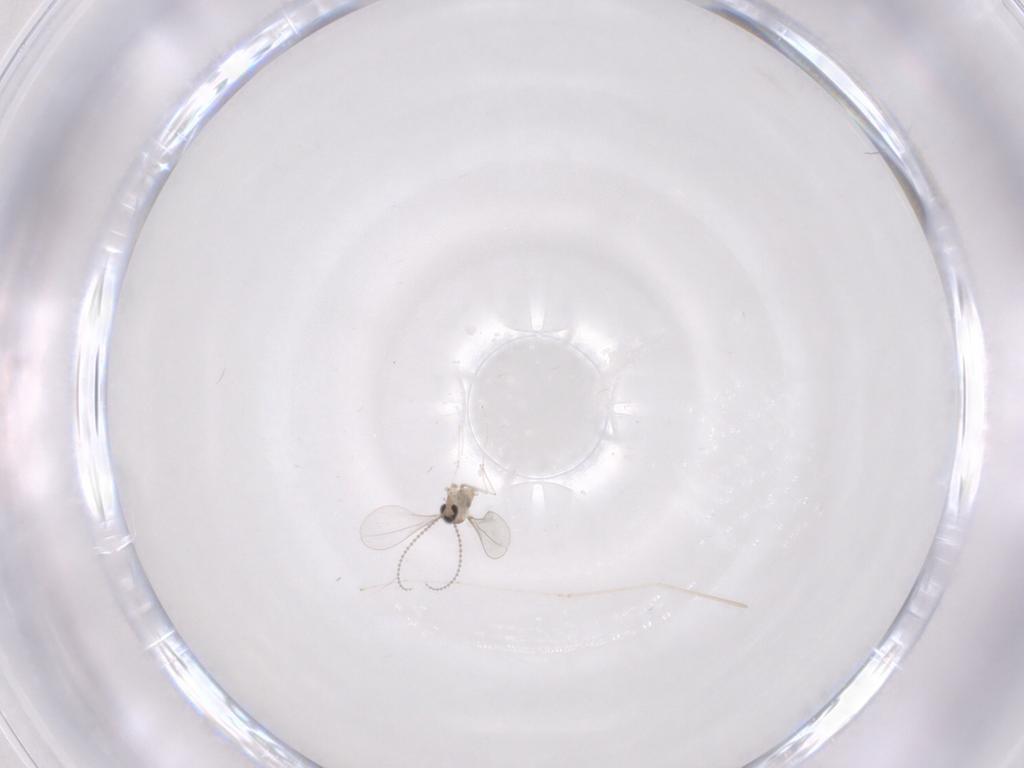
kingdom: Animalia
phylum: Arthropoda
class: Insecta
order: Diptera
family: Cecidomyiidae
